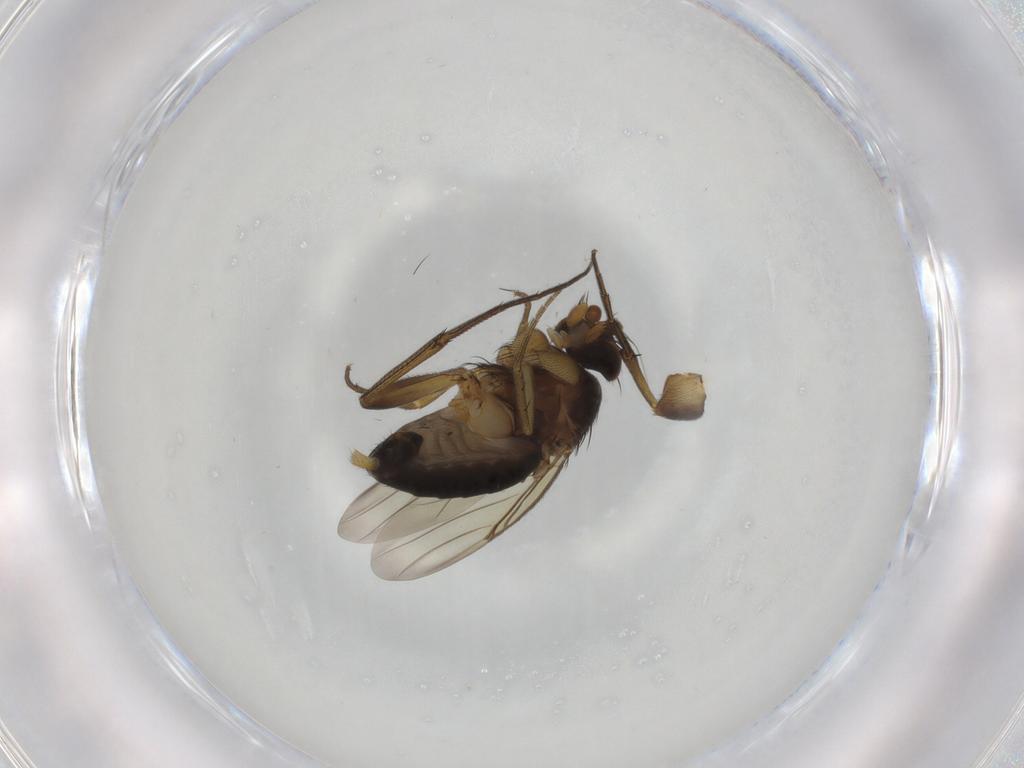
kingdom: Animalia
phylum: Arthropoda
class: Insecta
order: Diptera
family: Phoridae
